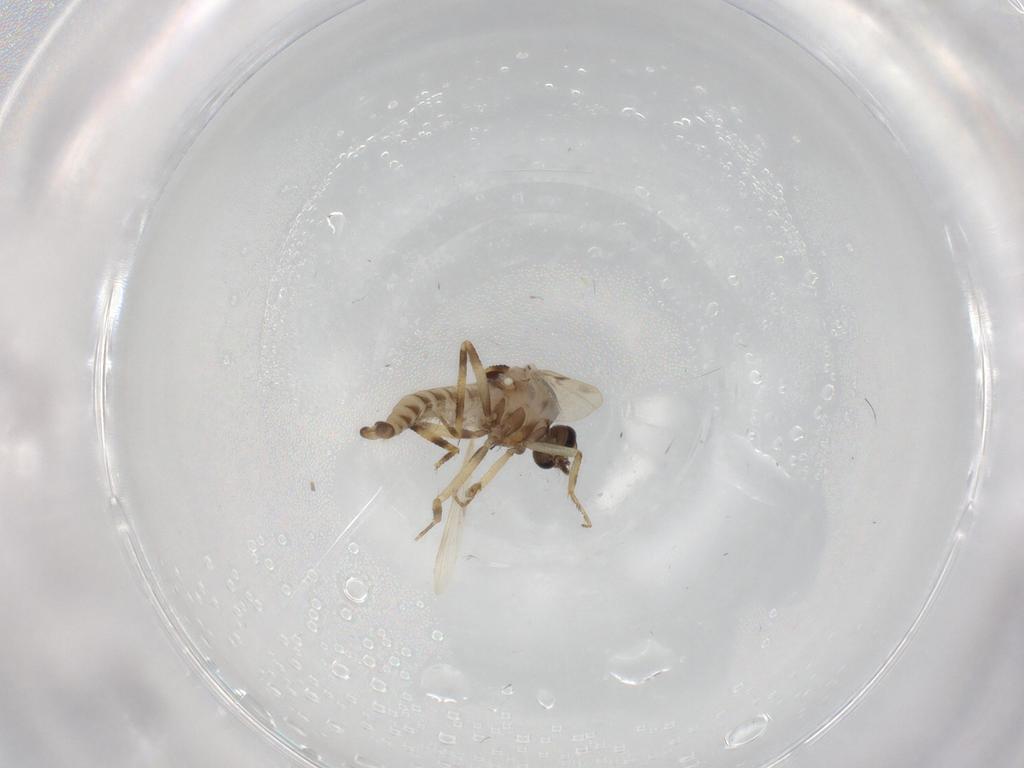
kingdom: Animalia
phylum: Arthropoda
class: Insecta
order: Diptera
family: Ceratopogonidae
